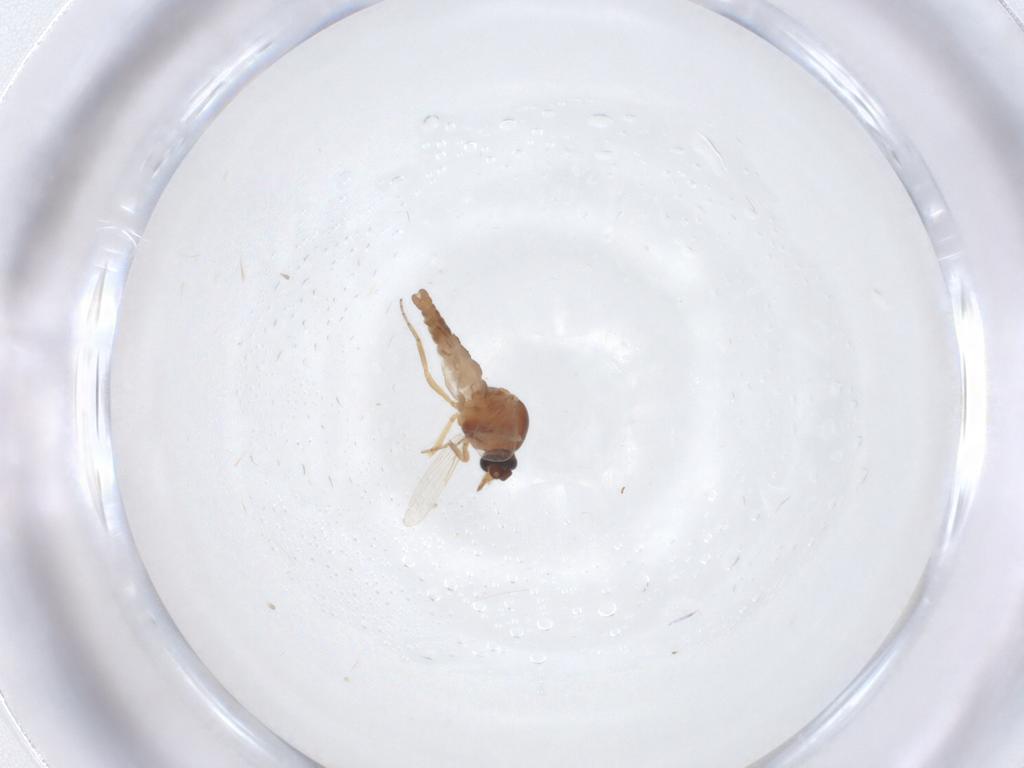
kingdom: Animalia
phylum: Arthropoda
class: Insecta
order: Diptera
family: Ceratopogonidae
